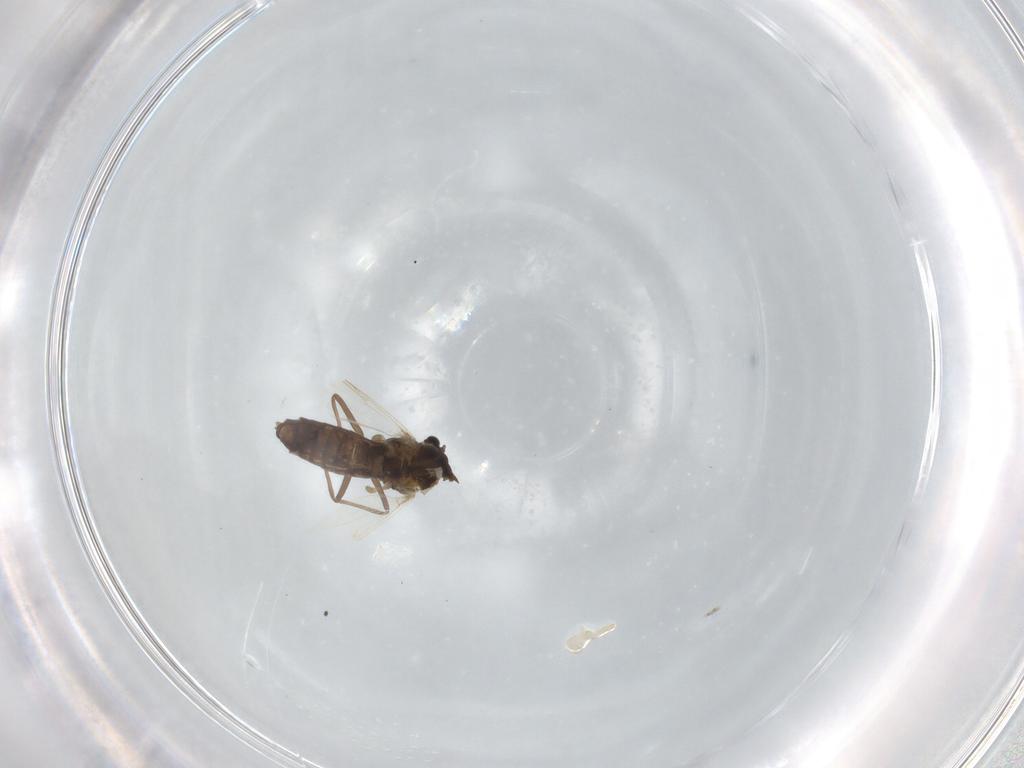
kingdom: Animalia
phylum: Arthropoda
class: Insecta
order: Diptera
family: Chironomidae
